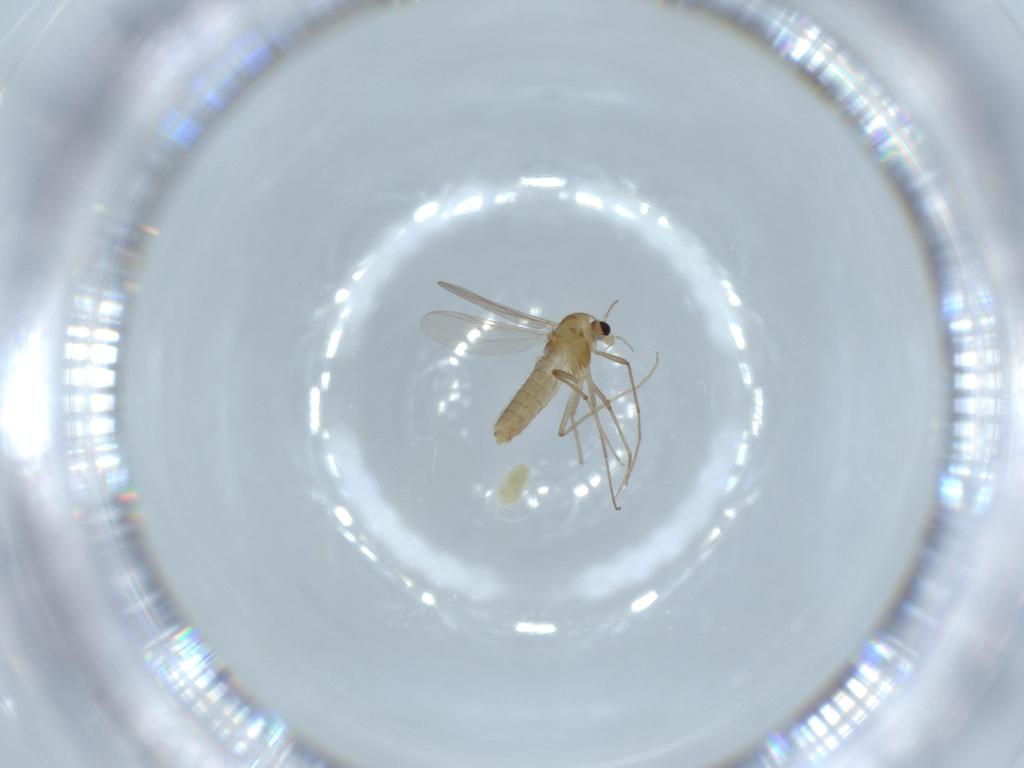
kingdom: Animalia
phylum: Arthropoda
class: Insecta
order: Diptera
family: Chironomidae
